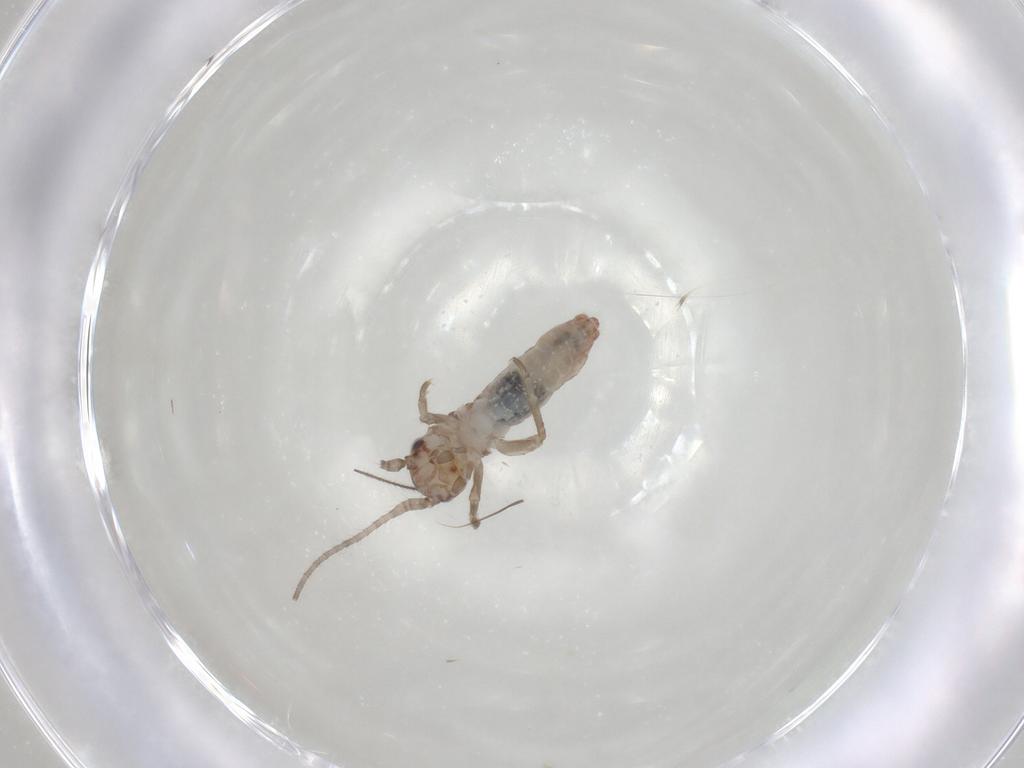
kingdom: Animalia
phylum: Arthropoda
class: Insecta
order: Orthoptera
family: Mogoplistidae
